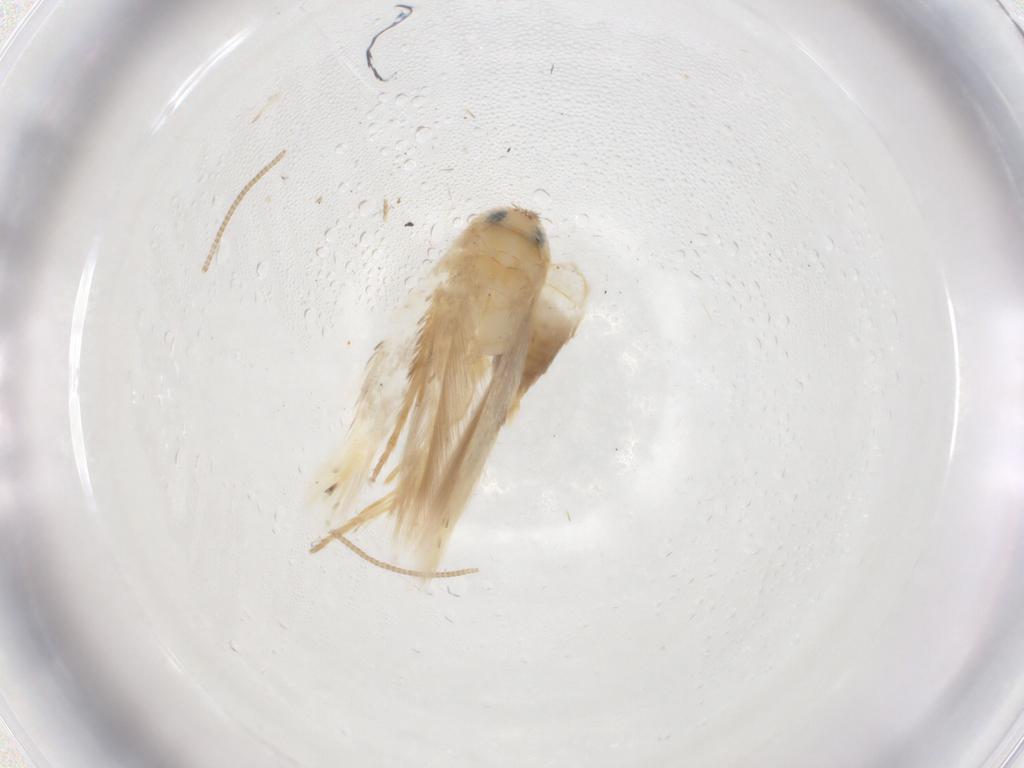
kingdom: Animalia
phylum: Arthropoda
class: Insecta
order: Lepidoptera
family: Opostegidae
